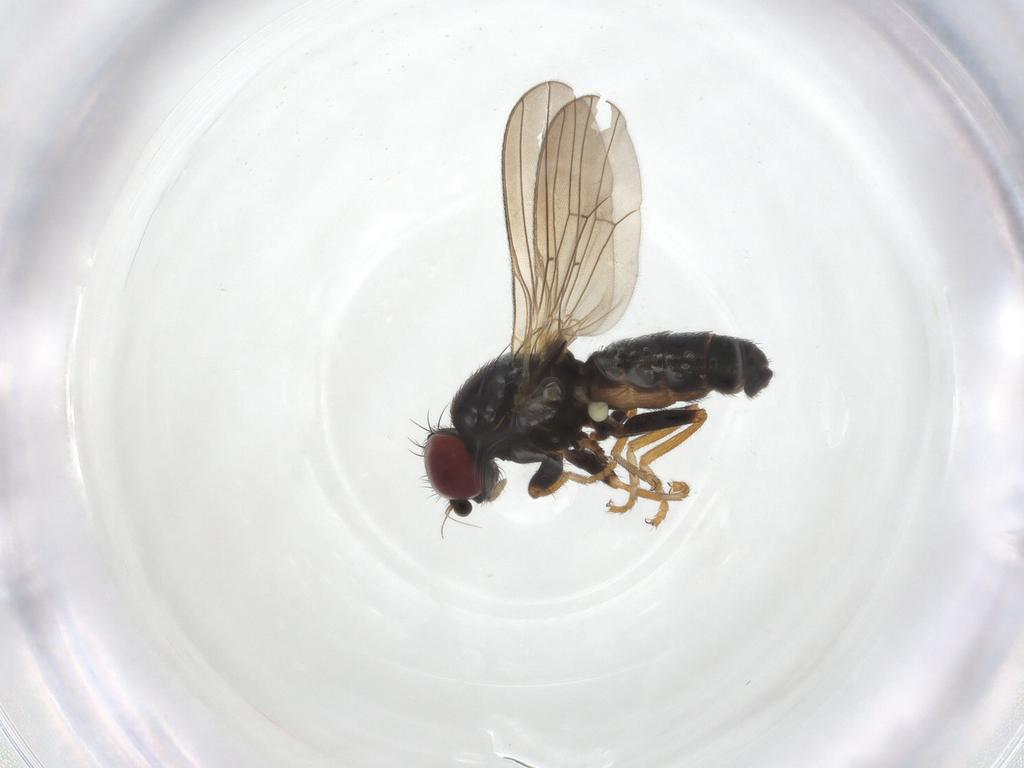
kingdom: Animalia
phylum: Arthropoda
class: Insecta
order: Diptera
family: Chamaemyiidae
